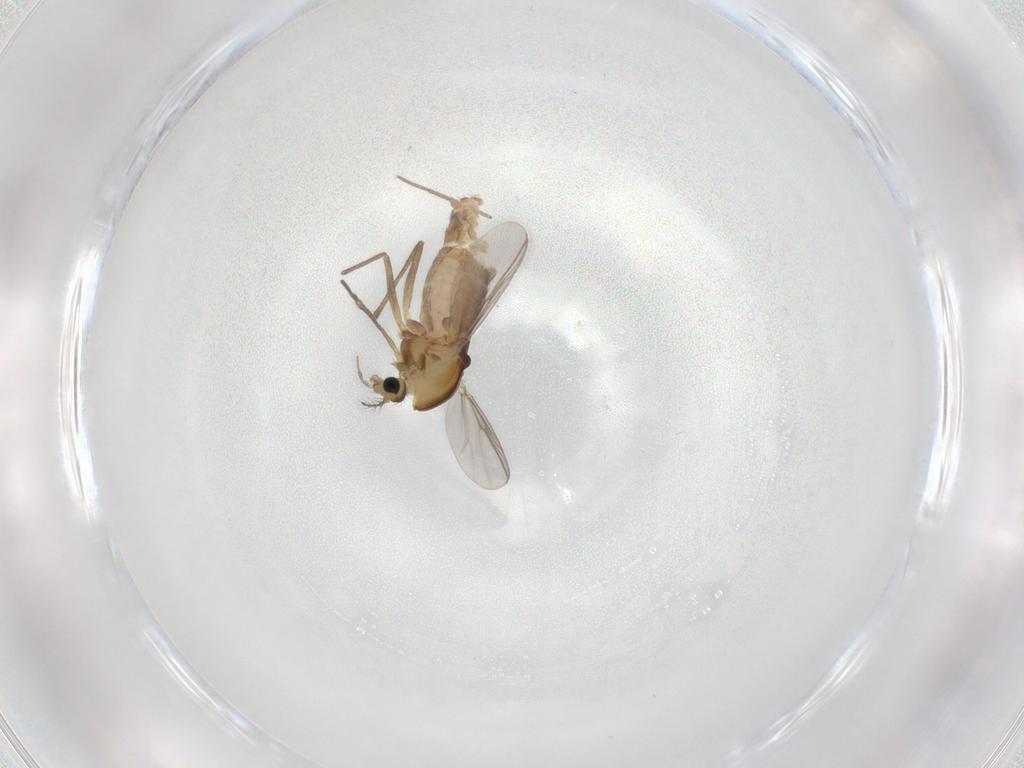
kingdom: Animalia
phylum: Arthropoda
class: Insecta
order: Diptera
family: Chironomidae
